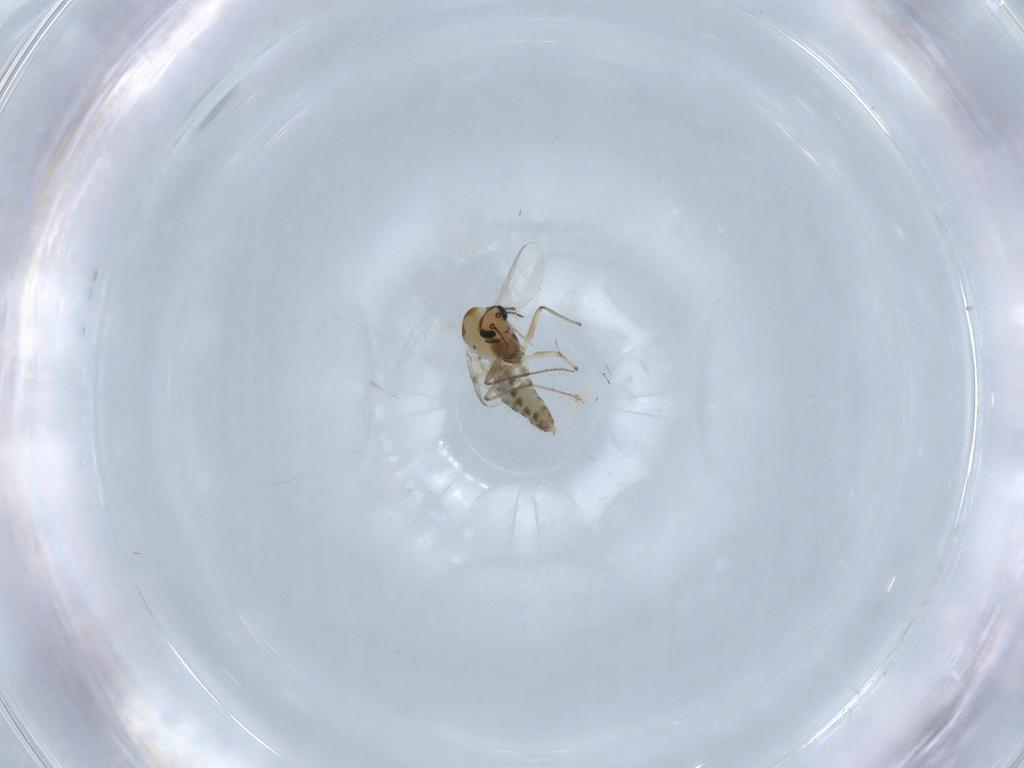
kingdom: Animalia
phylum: Arthropoda
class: Insecta
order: Diptera
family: Chironomidae
